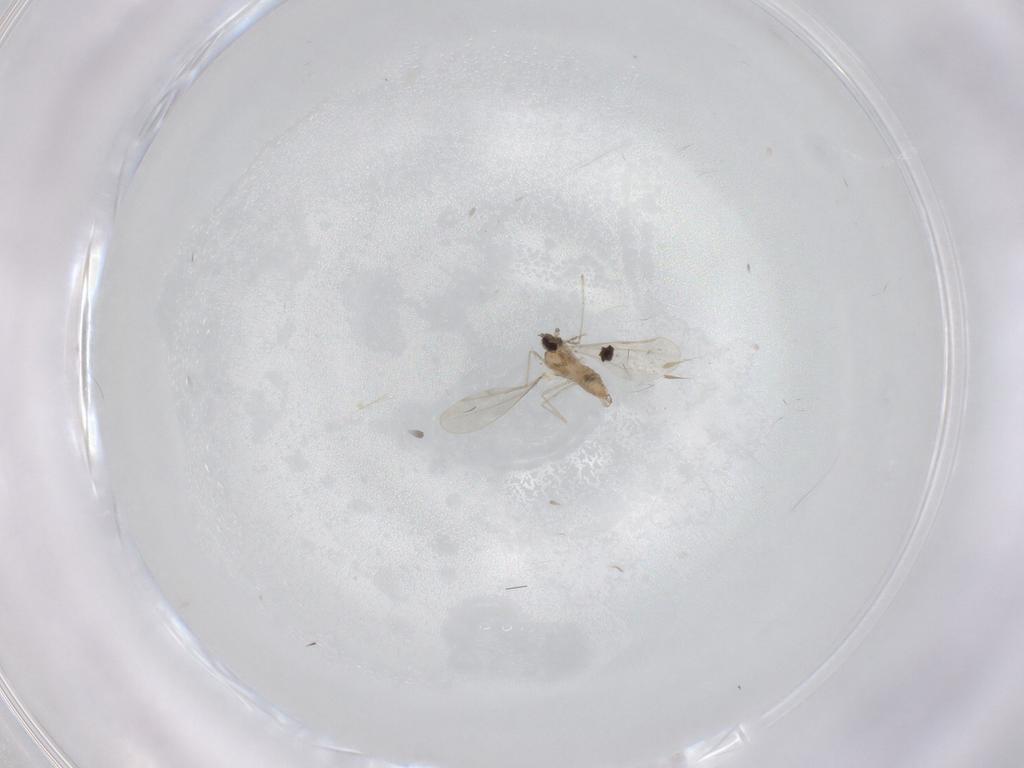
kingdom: Animalia
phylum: Arthropoda
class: Insecta
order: Diptera
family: Cecidomyiidae
